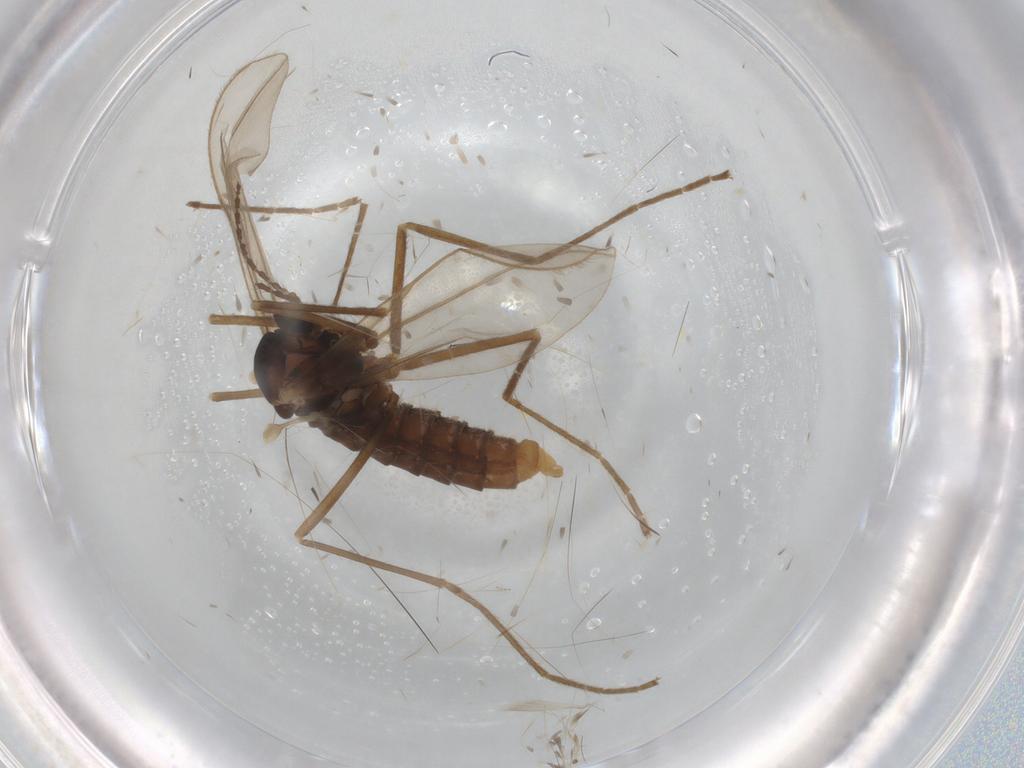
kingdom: Animalia
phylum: Arthropoda
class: Insecta
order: Diptera
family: Cecidomyiidae
